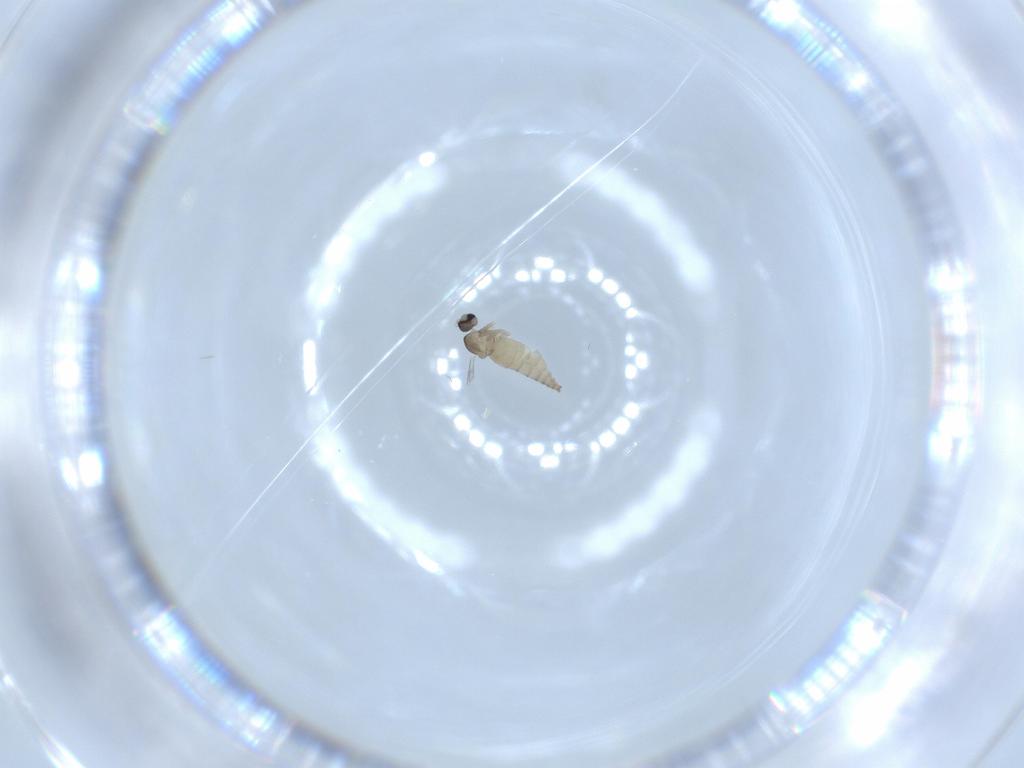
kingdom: Animalia
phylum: Arthropoda
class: Insecta
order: Diptera
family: Cecidomyiidae
